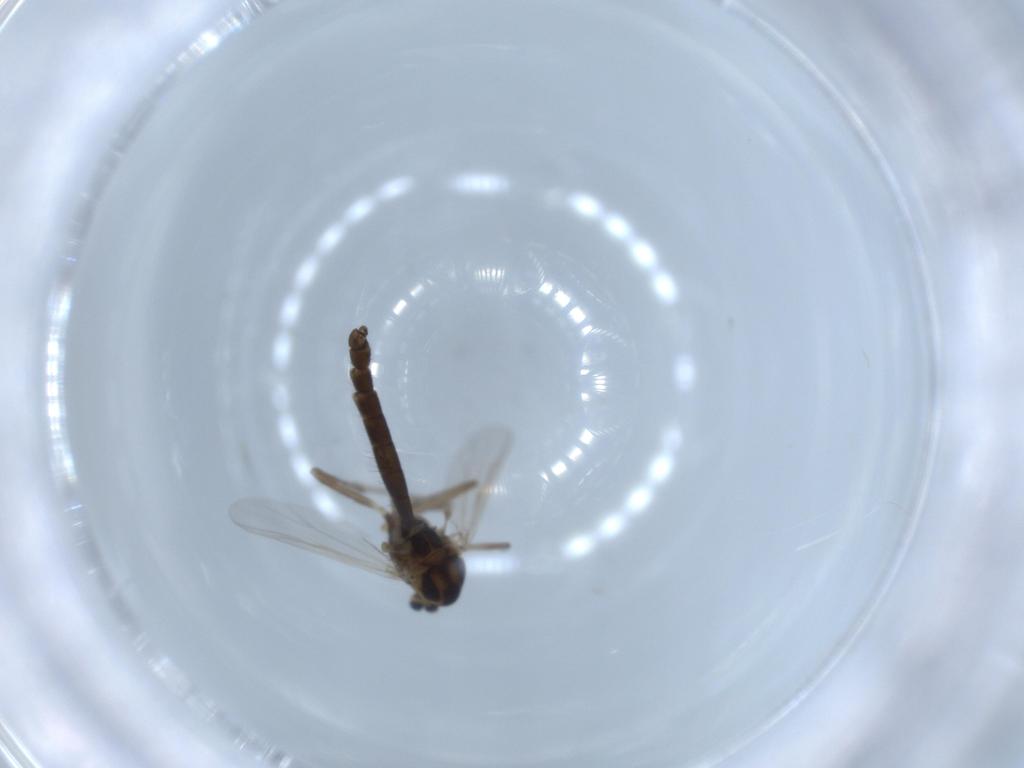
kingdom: Animalia
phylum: Arthropoda
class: Insecta
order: Diptera
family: Chironomidae
